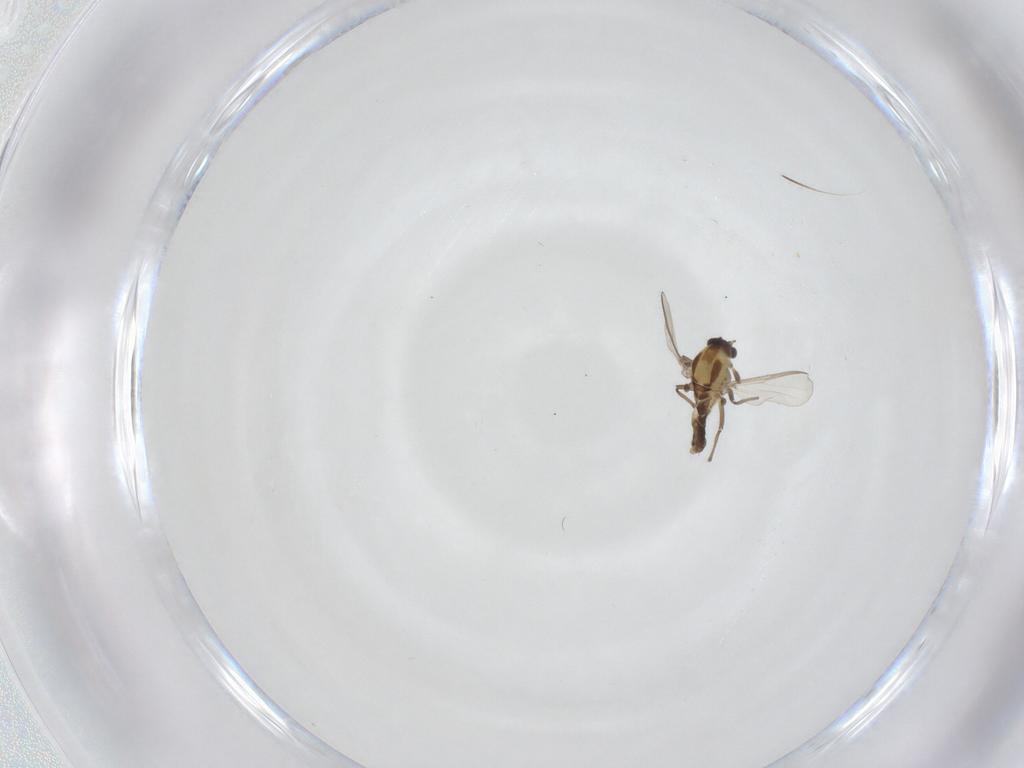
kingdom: Animalia
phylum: Arthropoda
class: Insecta
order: Diptera
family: Chironomidae
